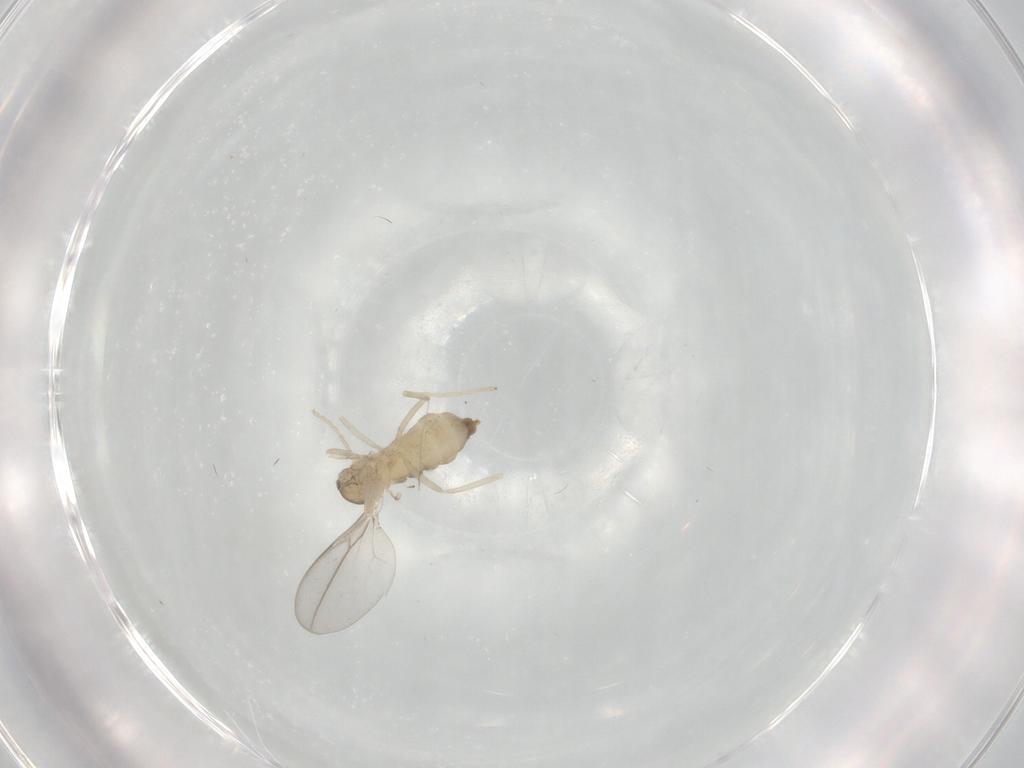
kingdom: Animalia
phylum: Arthropoda
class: Insecta
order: Diptera
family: Cecidomyiidae
